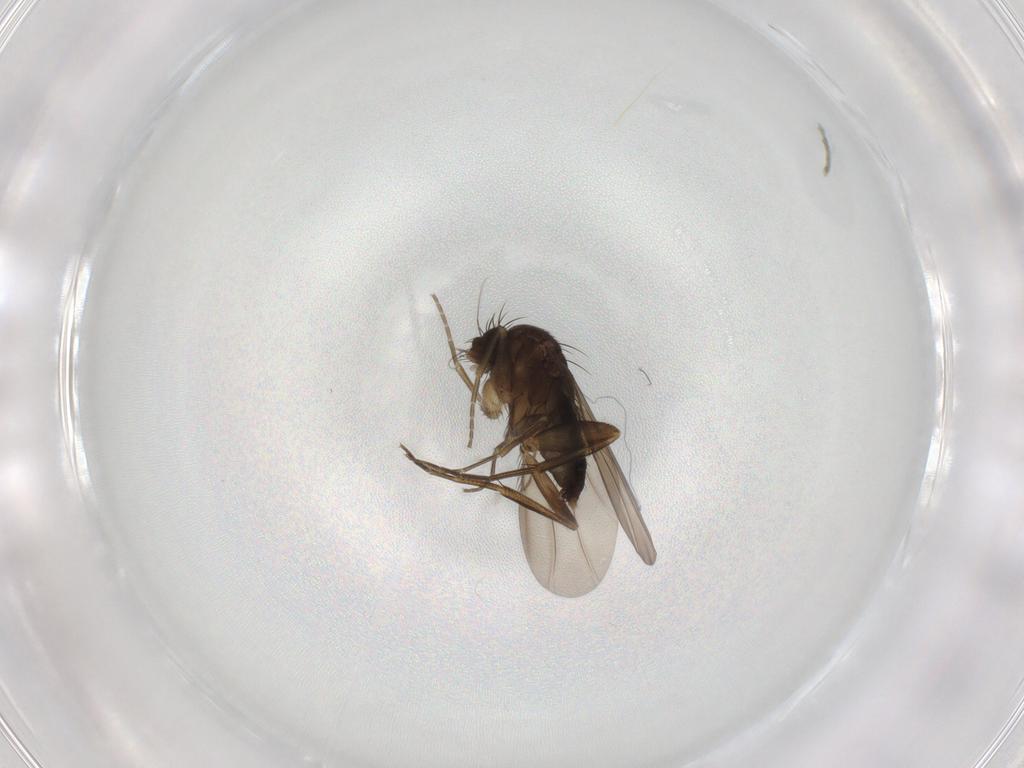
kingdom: Animalia
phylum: Arthropoda
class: Insecta
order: Diptera
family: Phoridae
